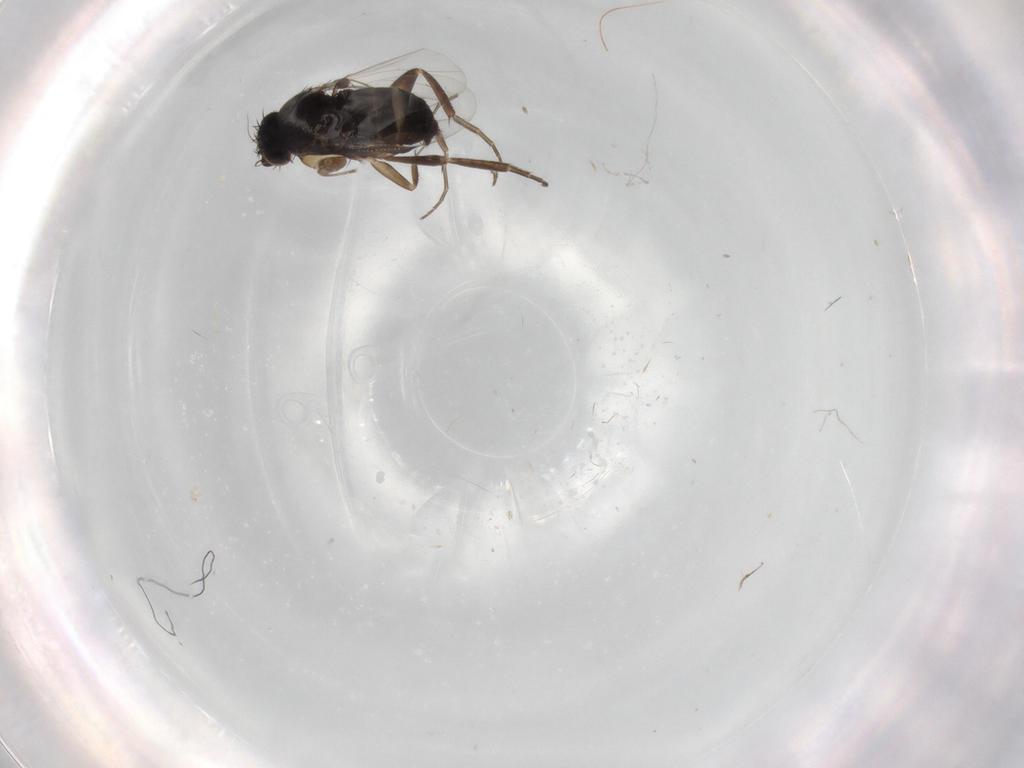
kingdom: Animalia
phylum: Arthropoda
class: Insecta
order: Diptera
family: Phoridae
